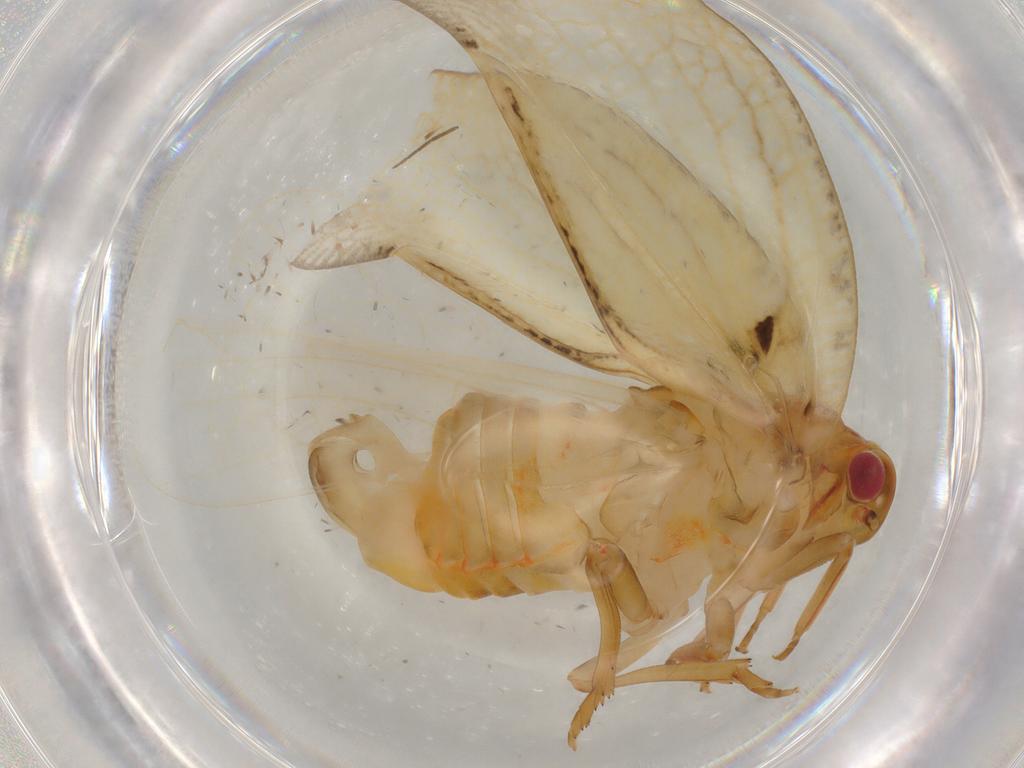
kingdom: Animalia
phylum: Arthropoda
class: Insecta
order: Hemiptera
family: Flatidae
